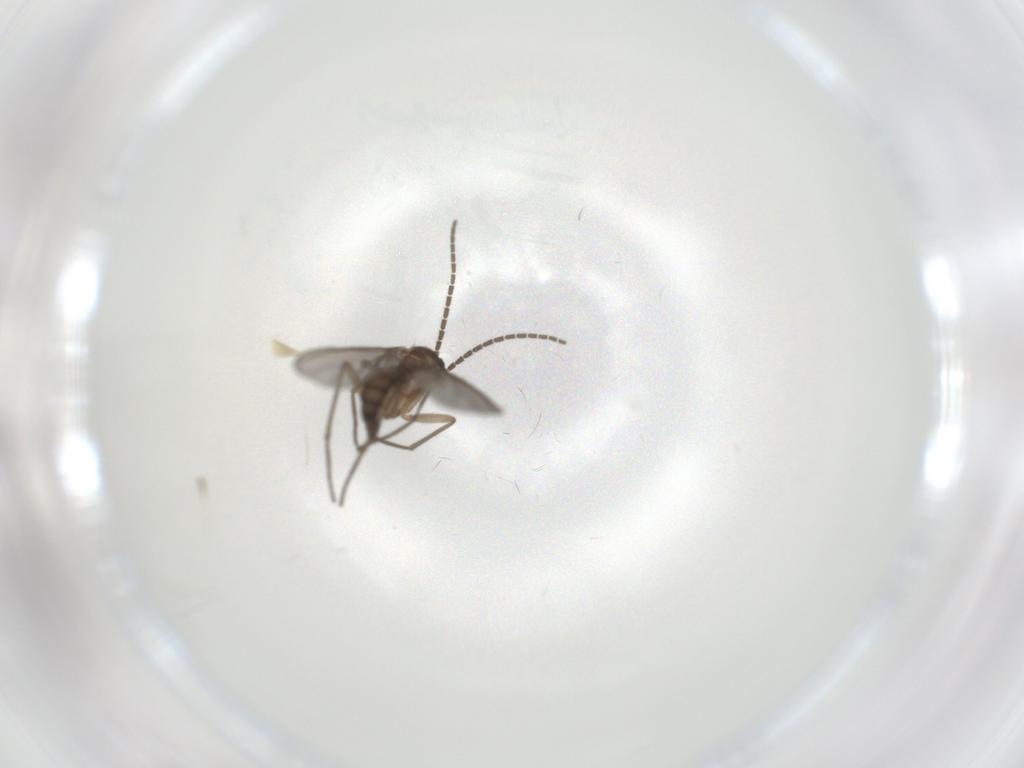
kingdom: Animalia
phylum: Arthropoda
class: Insecta
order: Diptera
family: Sciaridae
